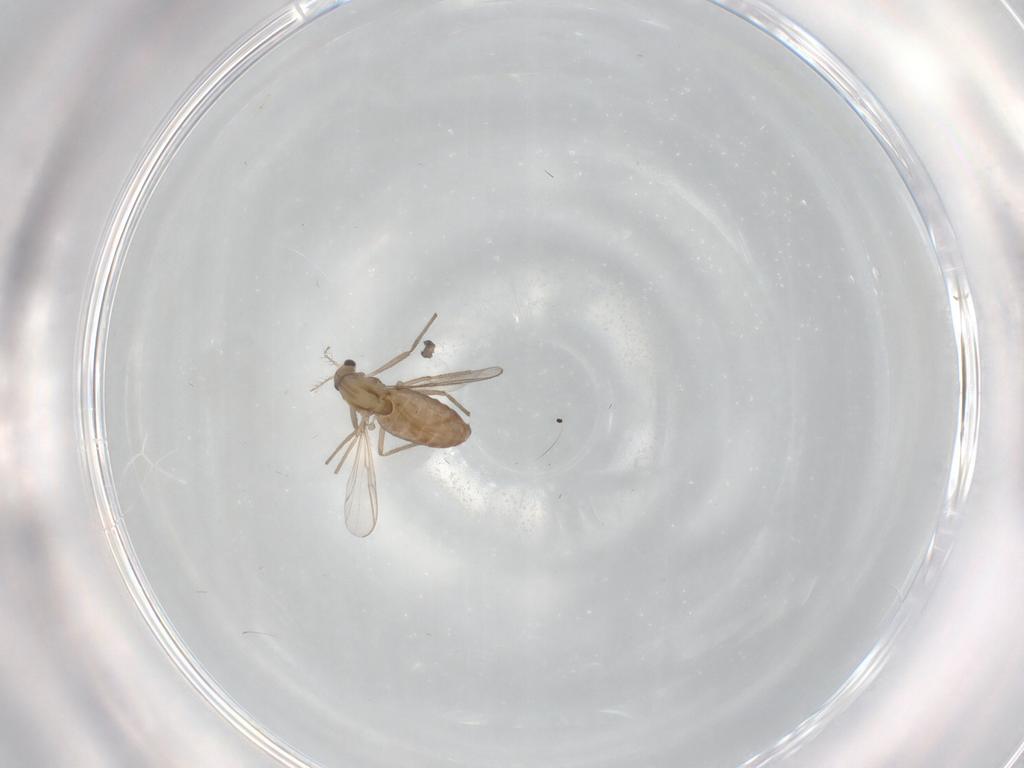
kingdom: Animalia
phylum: Arthropoda
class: Insecta
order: Diptera
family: Chironomidae
